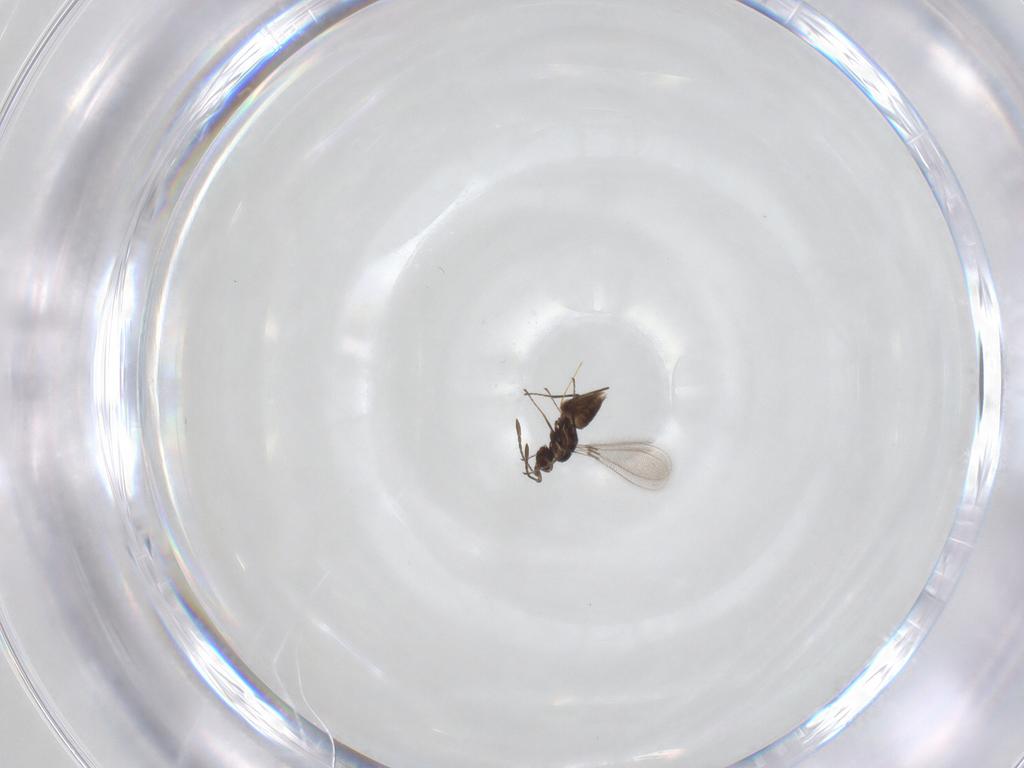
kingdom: Animalia
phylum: Arthropoda
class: Insecta
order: Hymenoptera
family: Mymaridae
